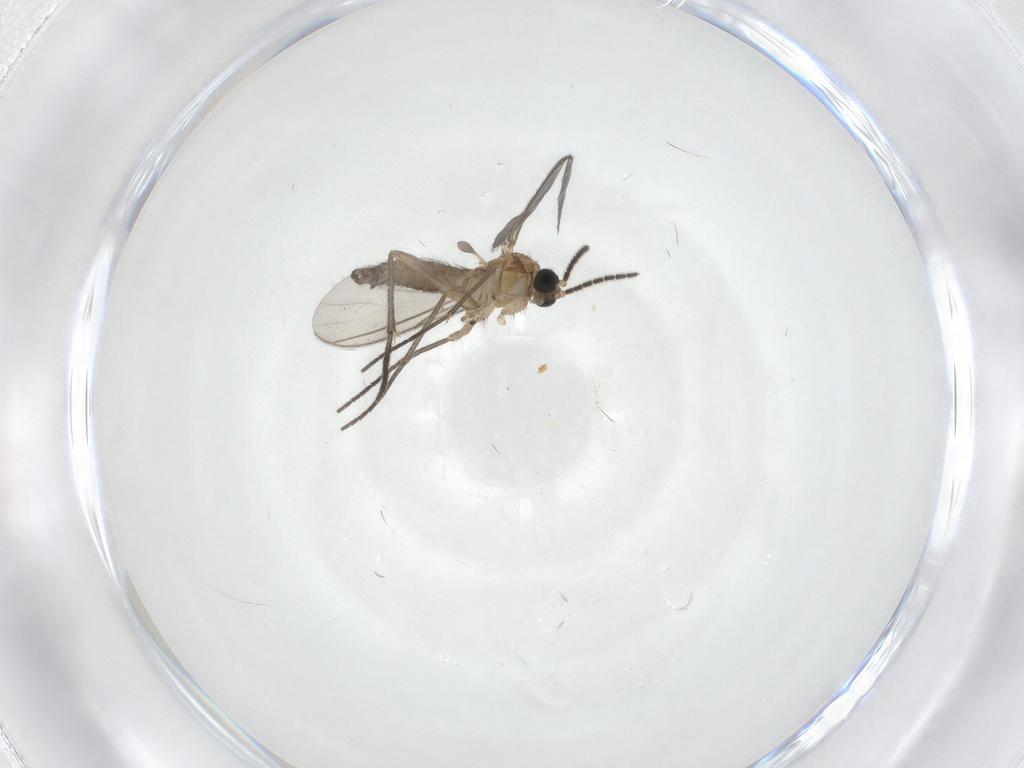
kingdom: Animalia
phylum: Arthropoda
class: Insecta
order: Diptera
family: Sciaridae
